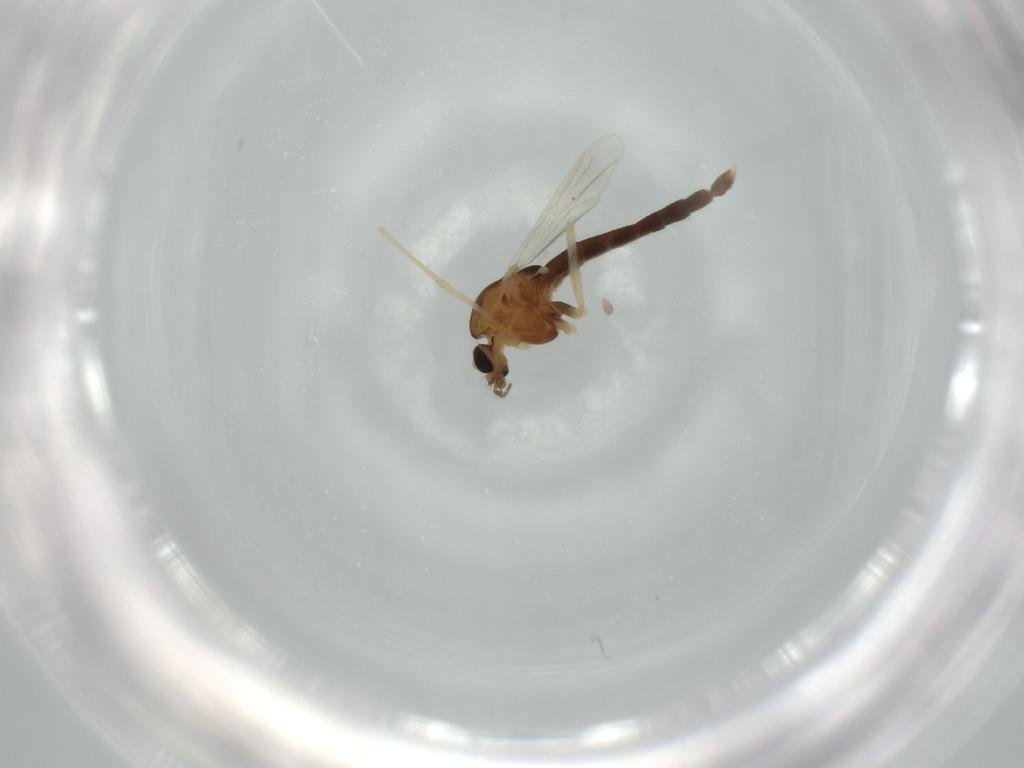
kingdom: Animalia
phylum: Arthropoda
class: Insecta
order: Diptera
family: Chironomidae
